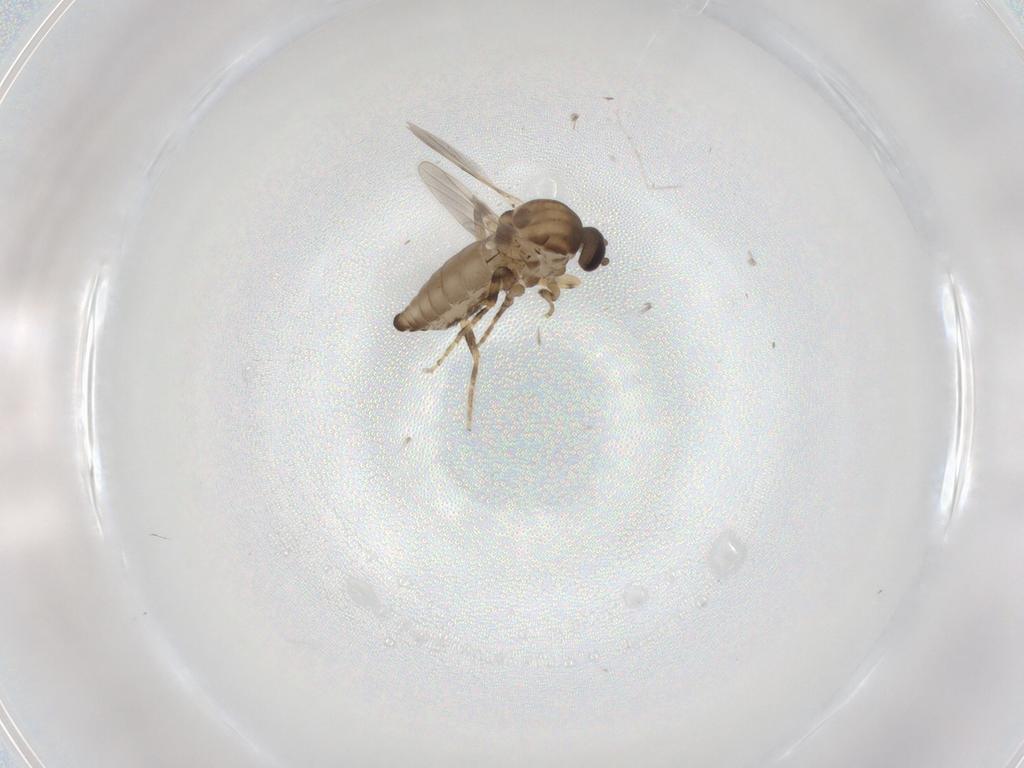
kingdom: Animalia
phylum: Arthropoda
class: Insecta
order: Diptera
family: Ceratopogonidae
